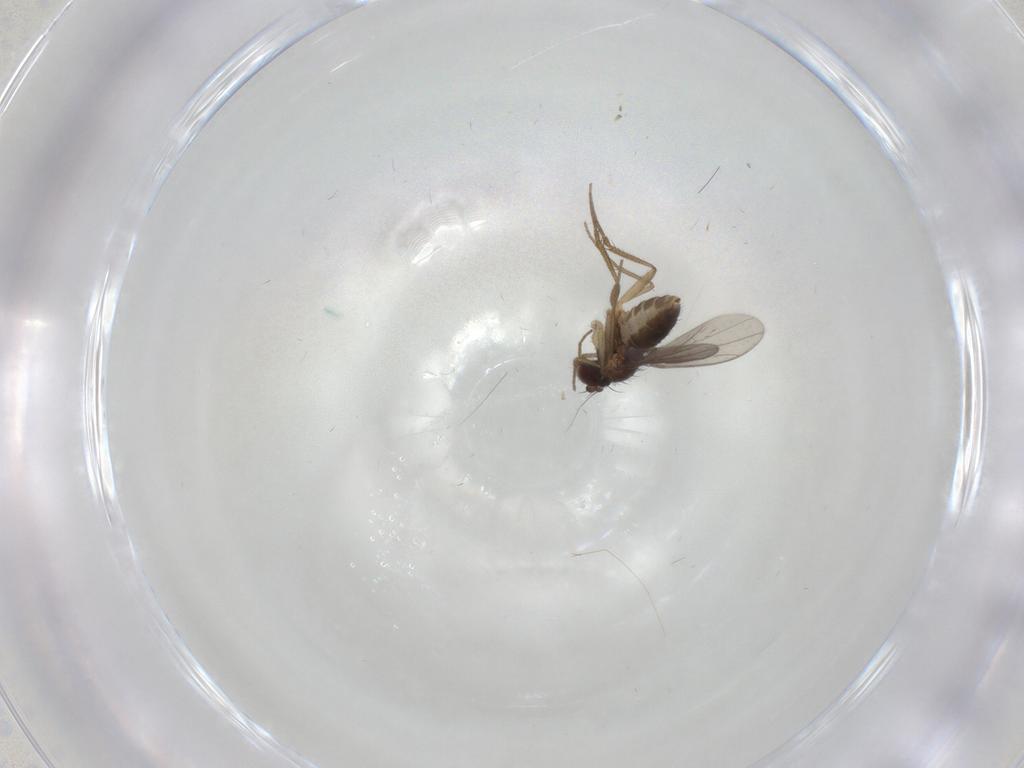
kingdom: Animalia
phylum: Arthropoda
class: Insecta
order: Diptera
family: Dolichopodidae
